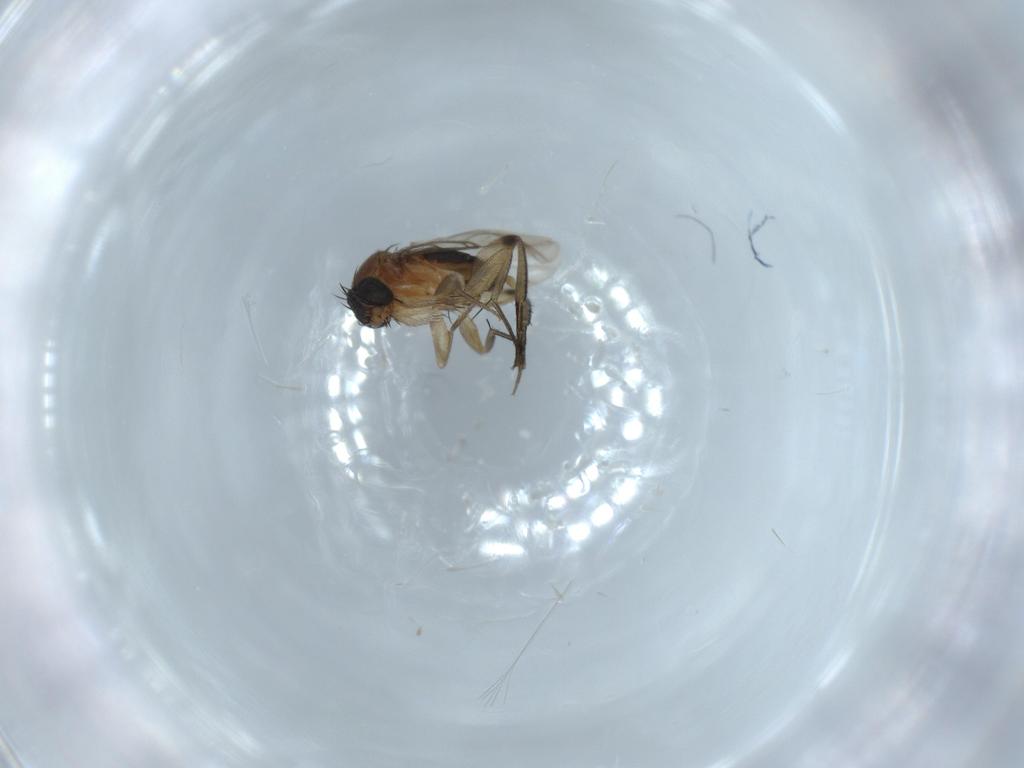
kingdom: Animalia
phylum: Arthropoda
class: Insecta
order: Diptera
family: Phoridae
